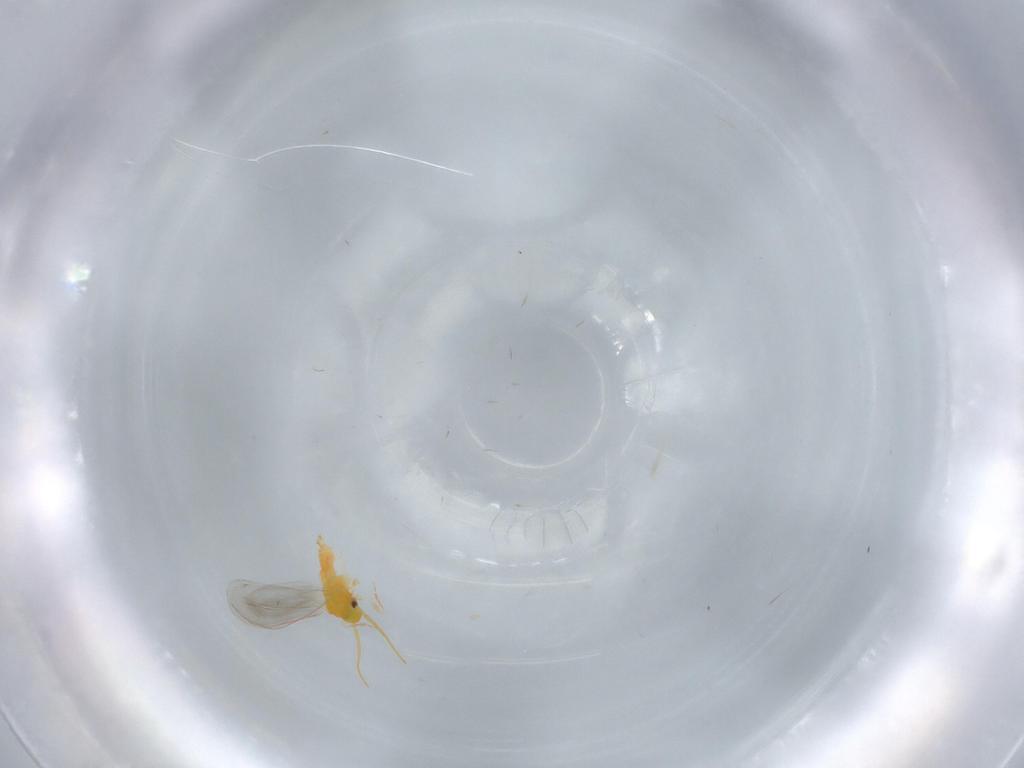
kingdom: Animalia
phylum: Arthropoda
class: Insecta
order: Hemiptera
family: Aleyrodidae
